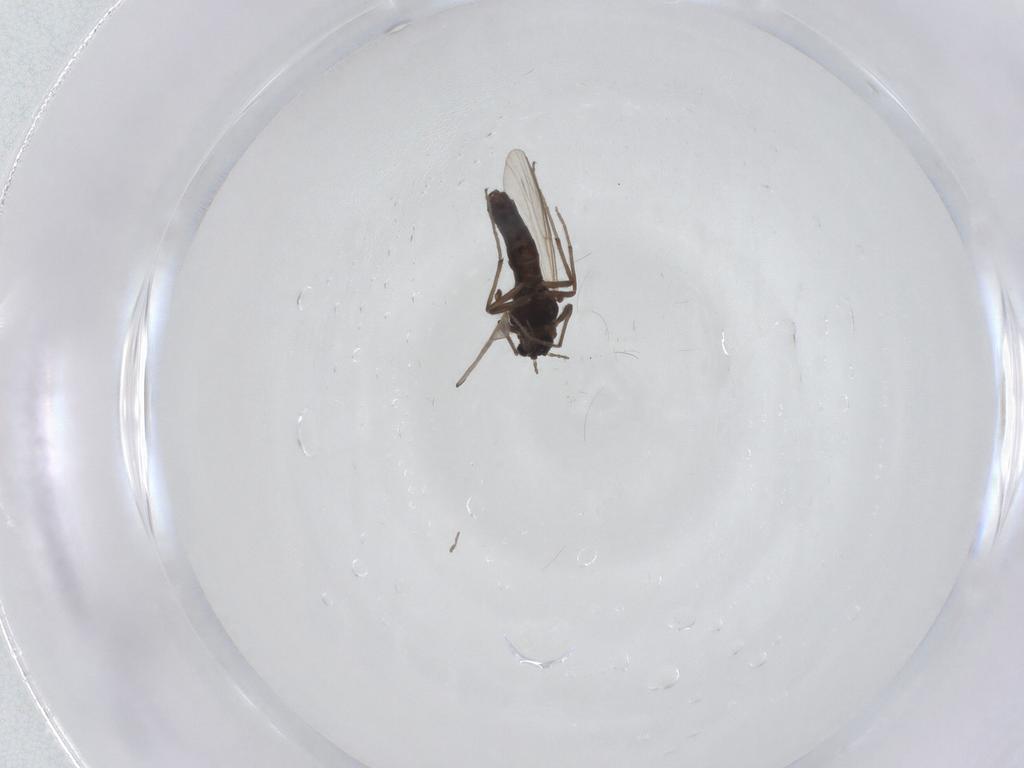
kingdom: Animalia
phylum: Arthropoda
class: Insecta
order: Diptera
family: Chironomidae
